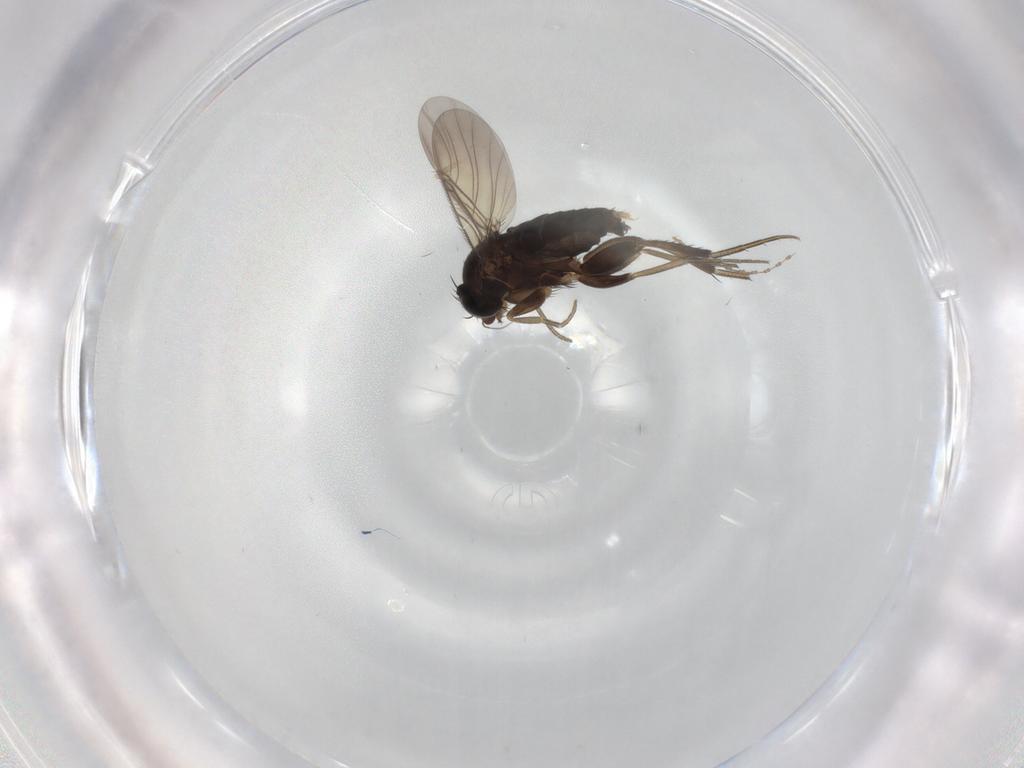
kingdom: Animalia
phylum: Arthropoda
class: Insecta
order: Diptera
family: Phoridae
